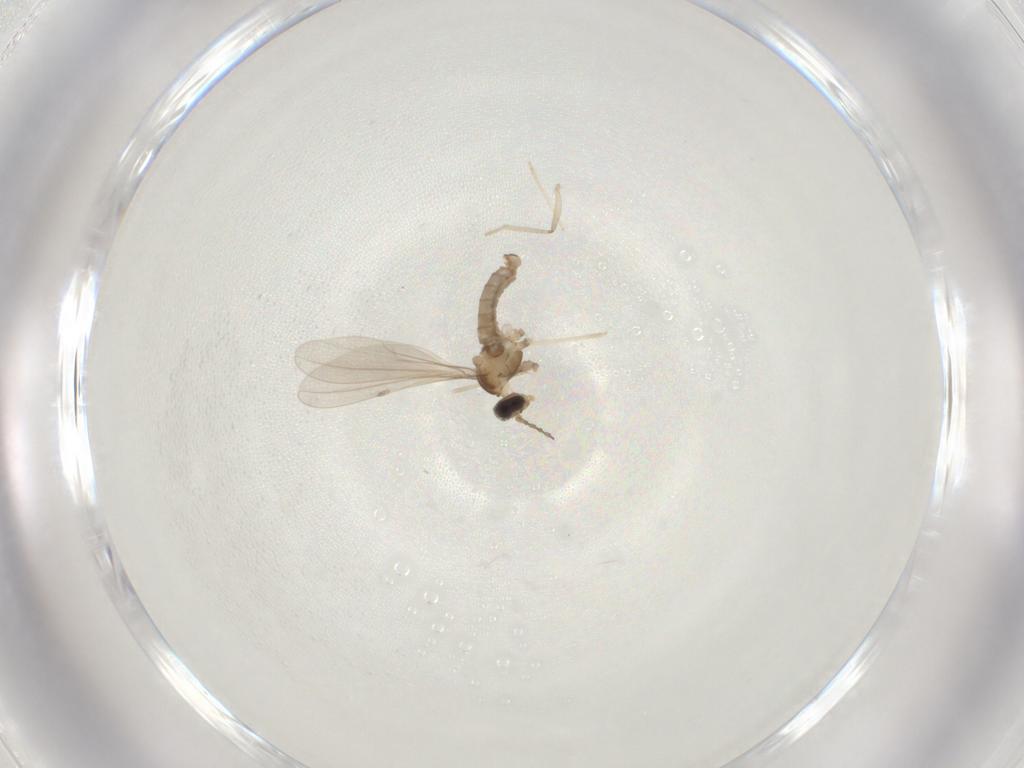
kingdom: Animalia
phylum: Arthropoda
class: Insecta
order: Diptera
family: Cecidomyiidae
